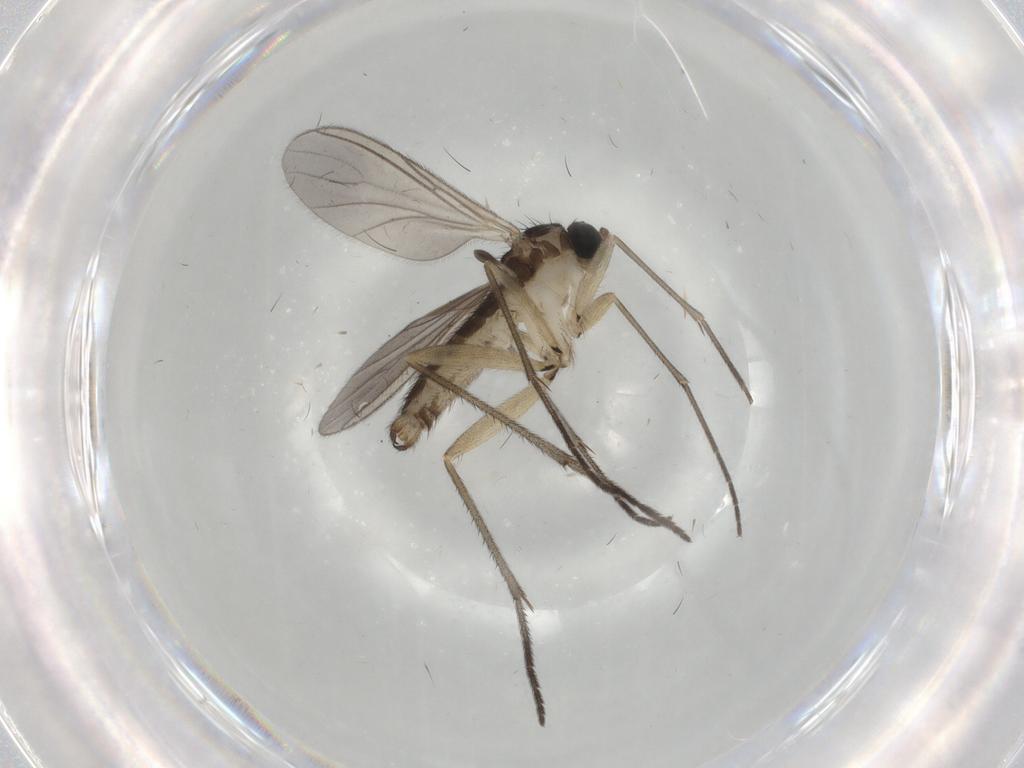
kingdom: Animalia
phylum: Arthropoda
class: Insecta
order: Diptera
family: Sciaridae
